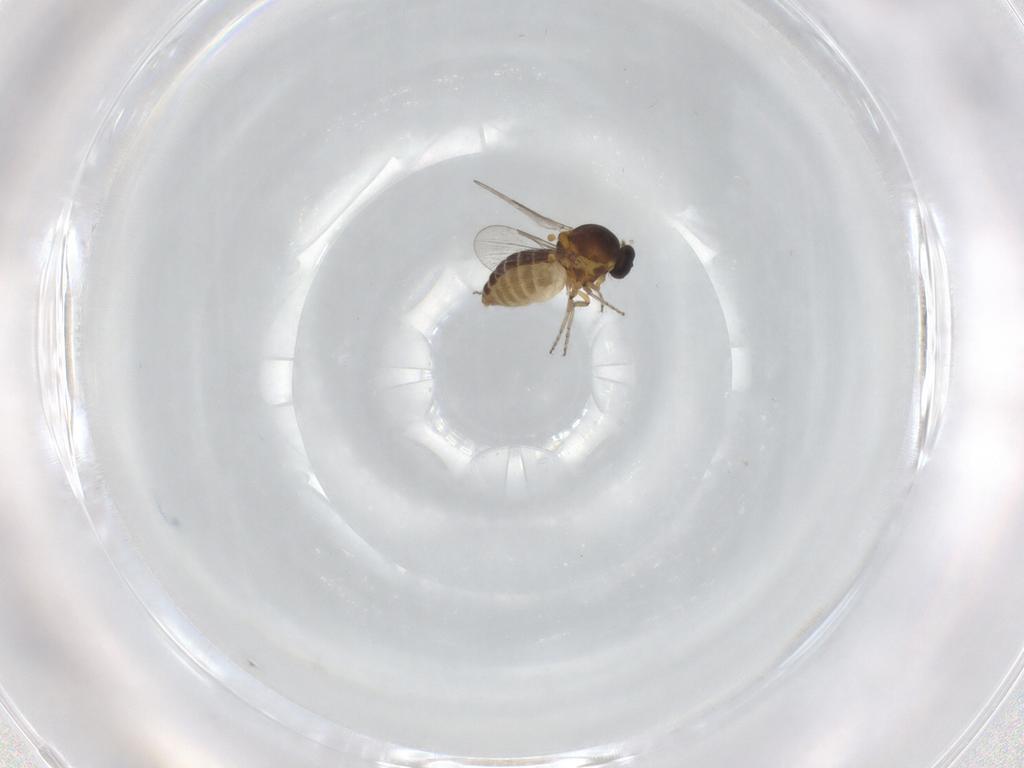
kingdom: Animalia
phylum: Arthropoda
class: Insecta
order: Diptera
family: Ceratopogonidae
